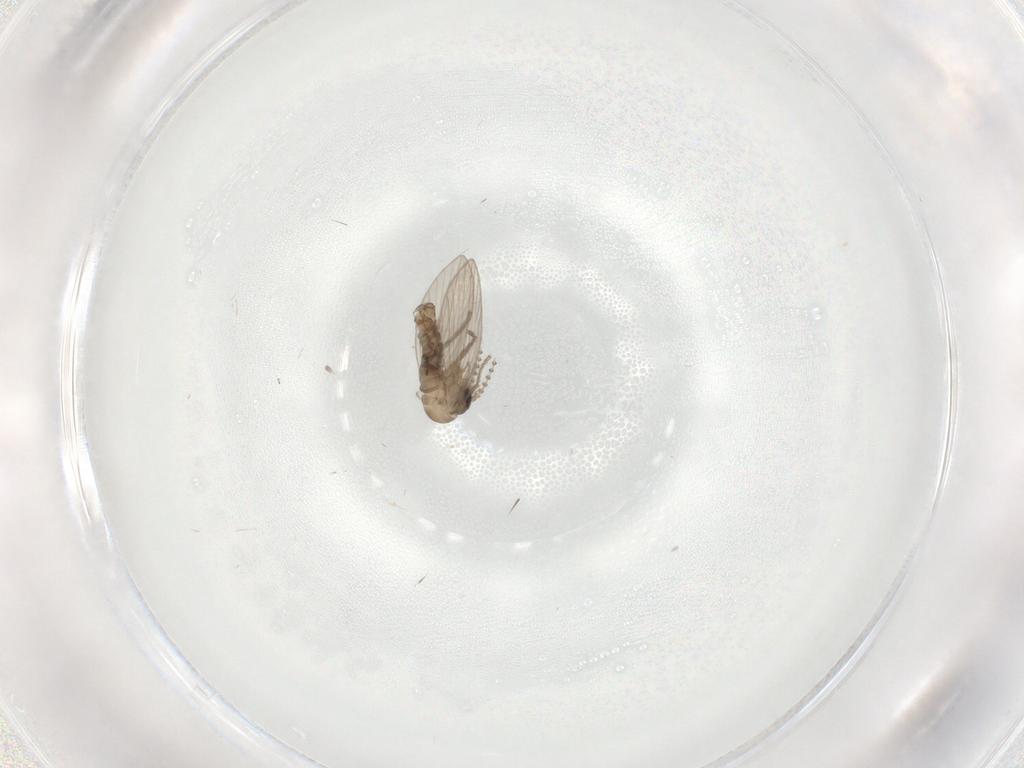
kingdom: Animalia
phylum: Arthropoda
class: Insecta
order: Diptera
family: Psychodidae
